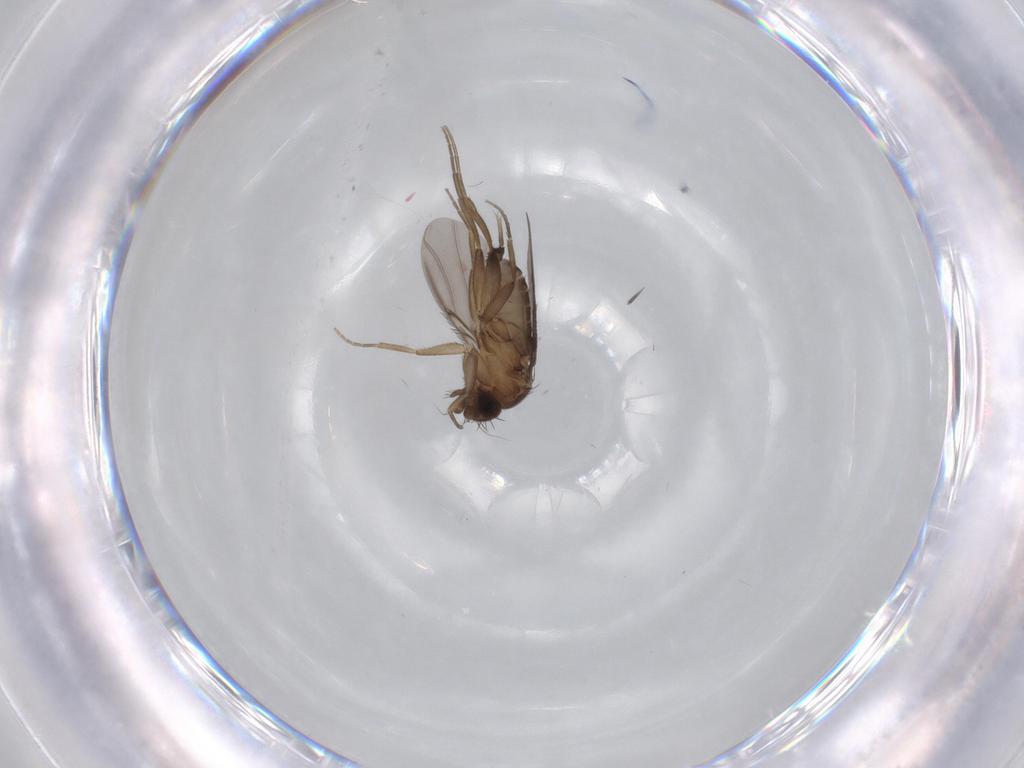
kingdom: Animalia
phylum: Arthropoda
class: Insecta
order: Diptera
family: Phoridae
